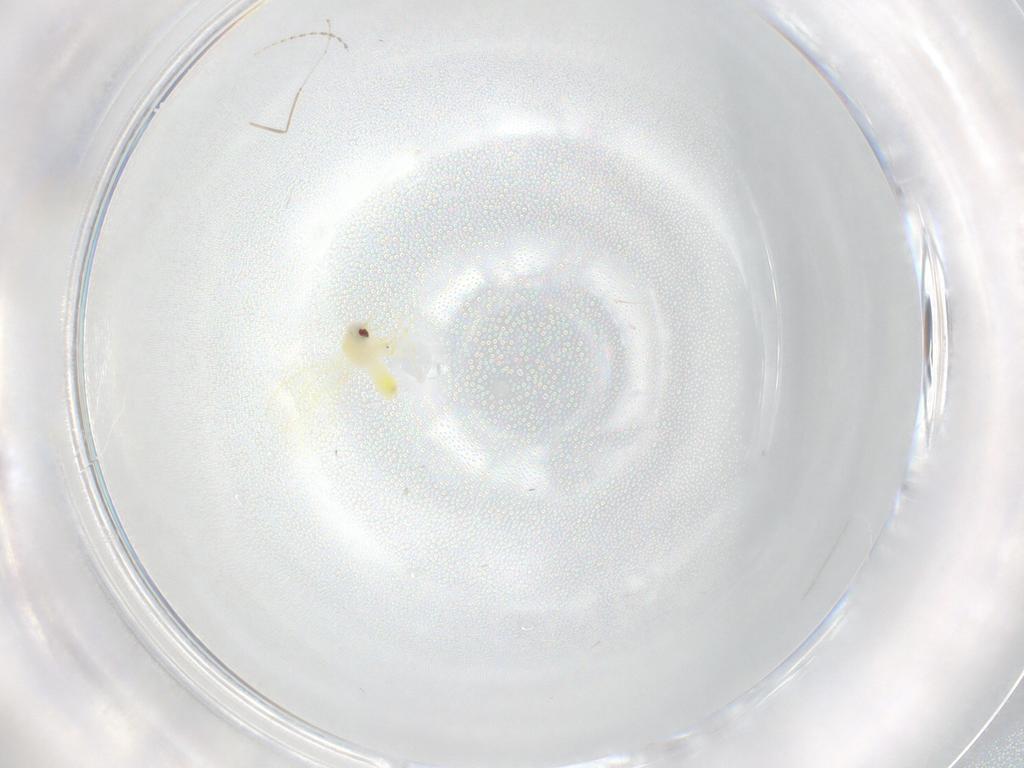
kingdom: Animalia
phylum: Arthropoda
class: Insecta
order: Hemiptera
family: Aleyrodidae
